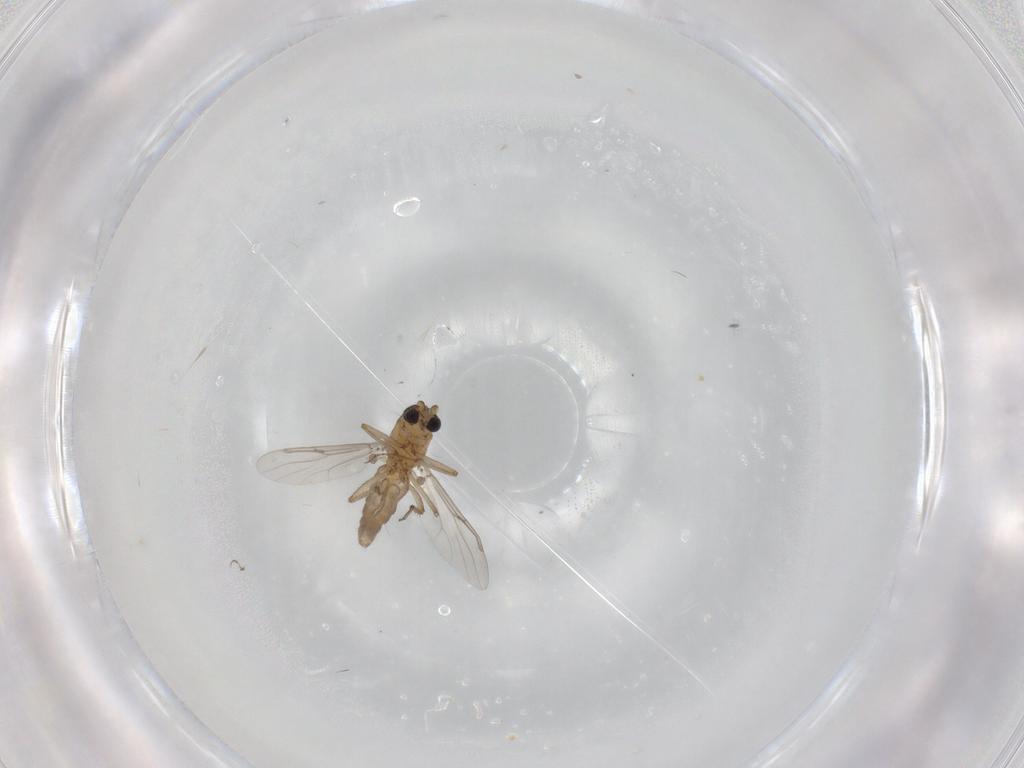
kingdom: Animalia
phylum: Arthropoda
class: Insecta
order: Diptera
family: Ceratopogonidae
